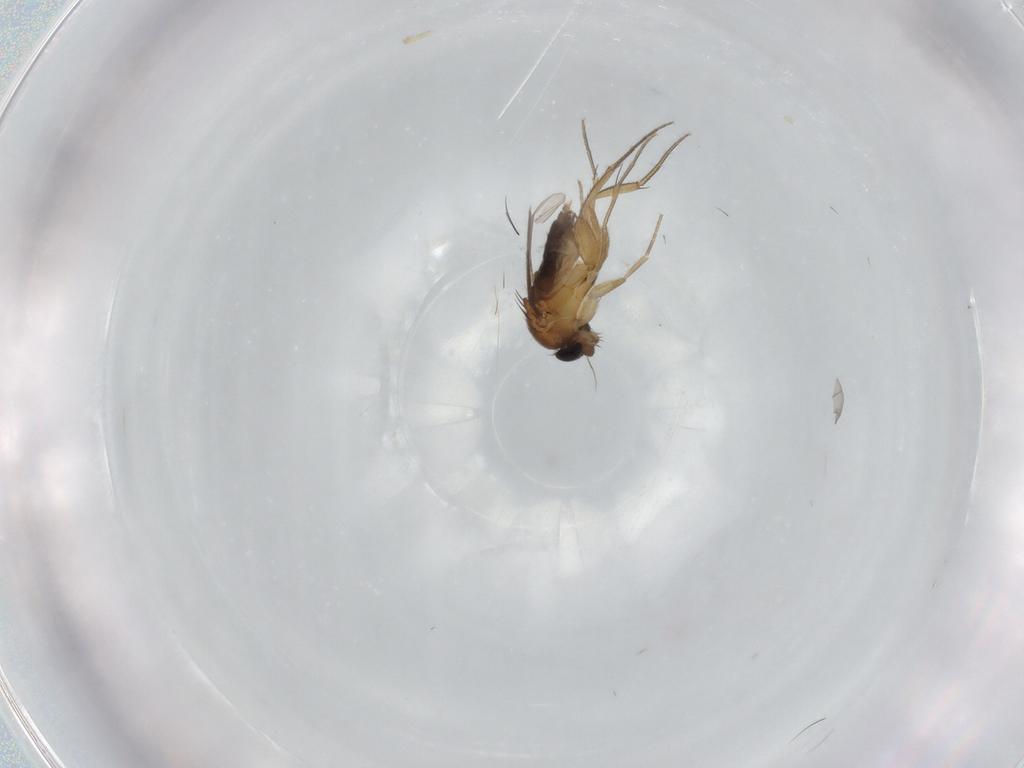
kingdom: Animalia
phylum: Arthropoda
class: Insecta
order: Diptera
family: Phoridae
